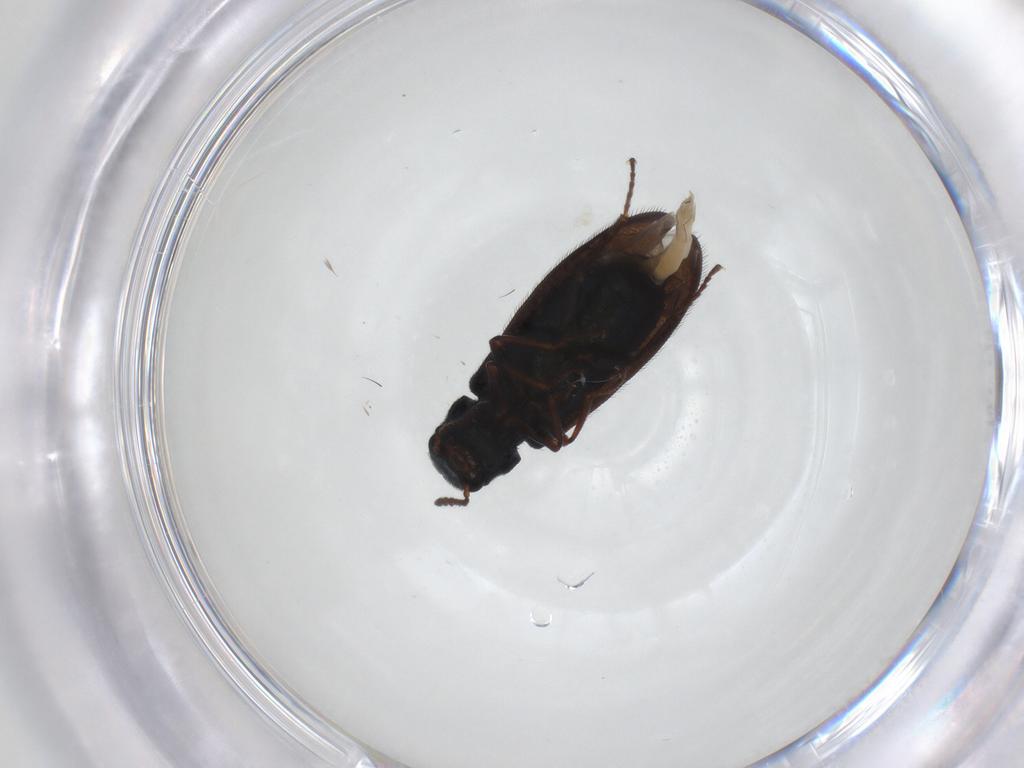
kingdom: Animalia
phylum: Arthropoda
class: Insecta
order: Coleoptera
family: Melyridae
